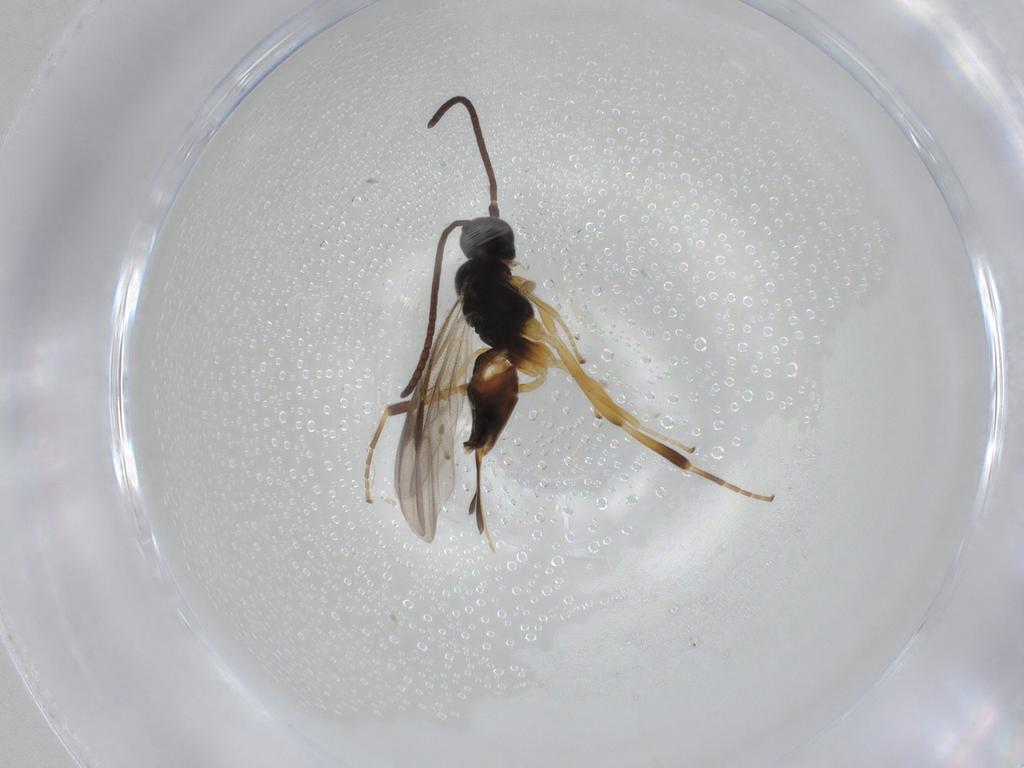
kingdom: Animalia
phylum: Arthropoda
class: Insecta
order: Hymenoptera
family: Braconidae
